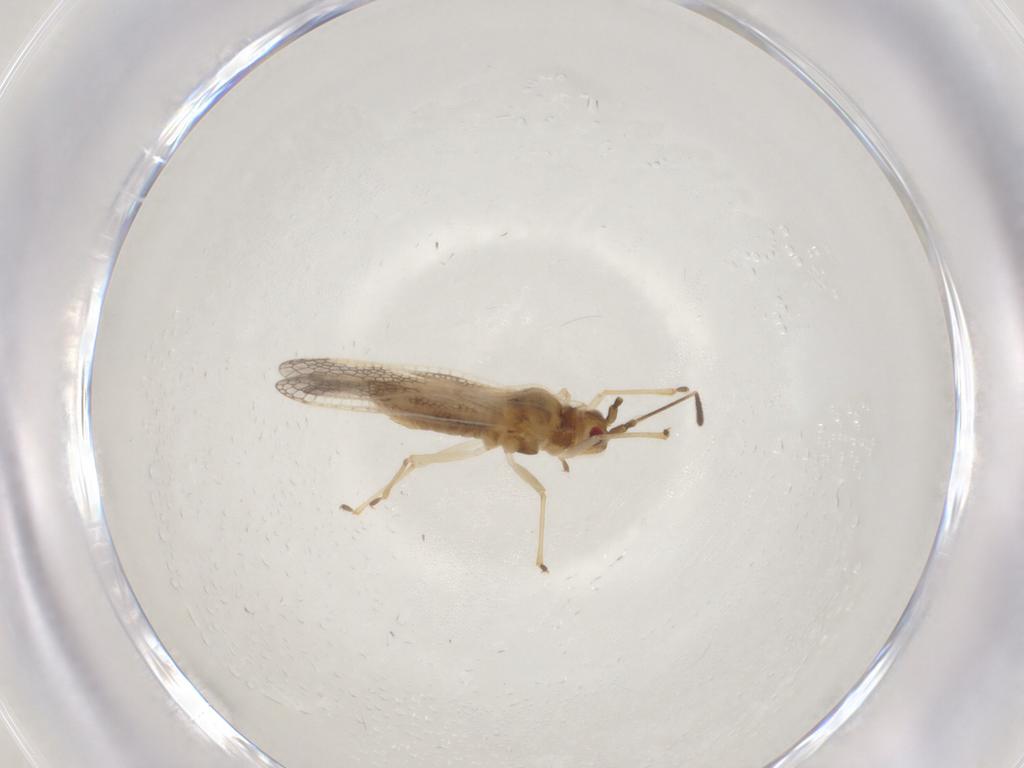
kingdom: Animalia
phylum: Arthropoda
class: Insecta
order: Hemiptera
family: Tingidae
